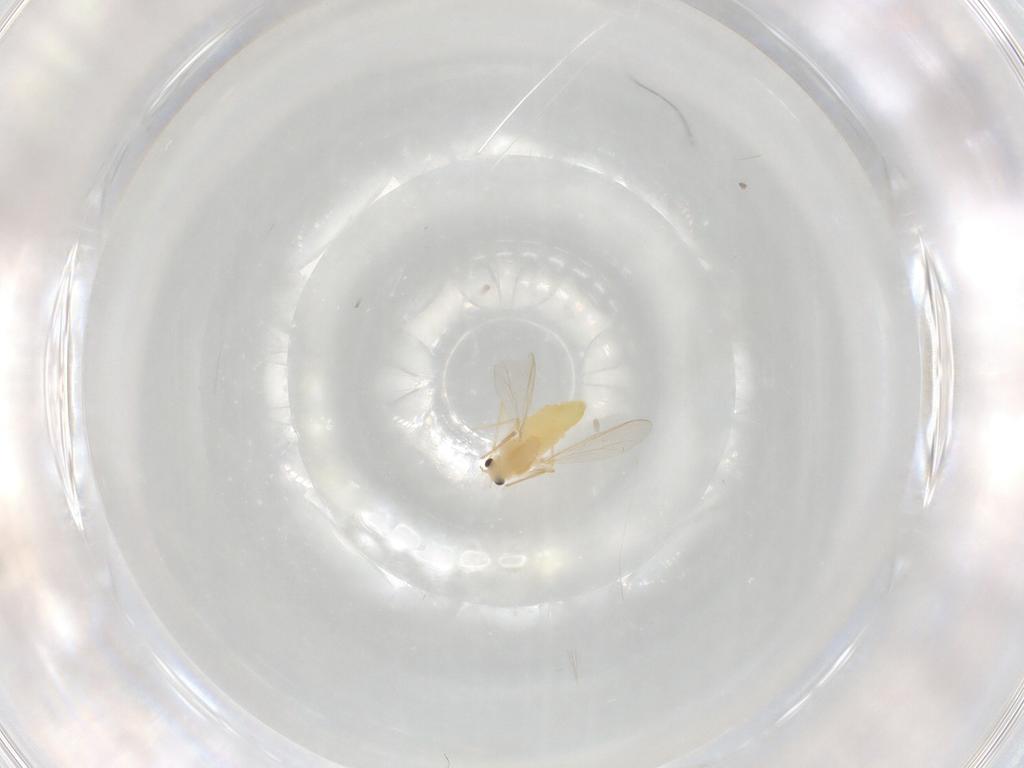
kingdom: Animalia
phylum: Arthropoda
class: Insecta
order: Diptera
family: Chironomidae
